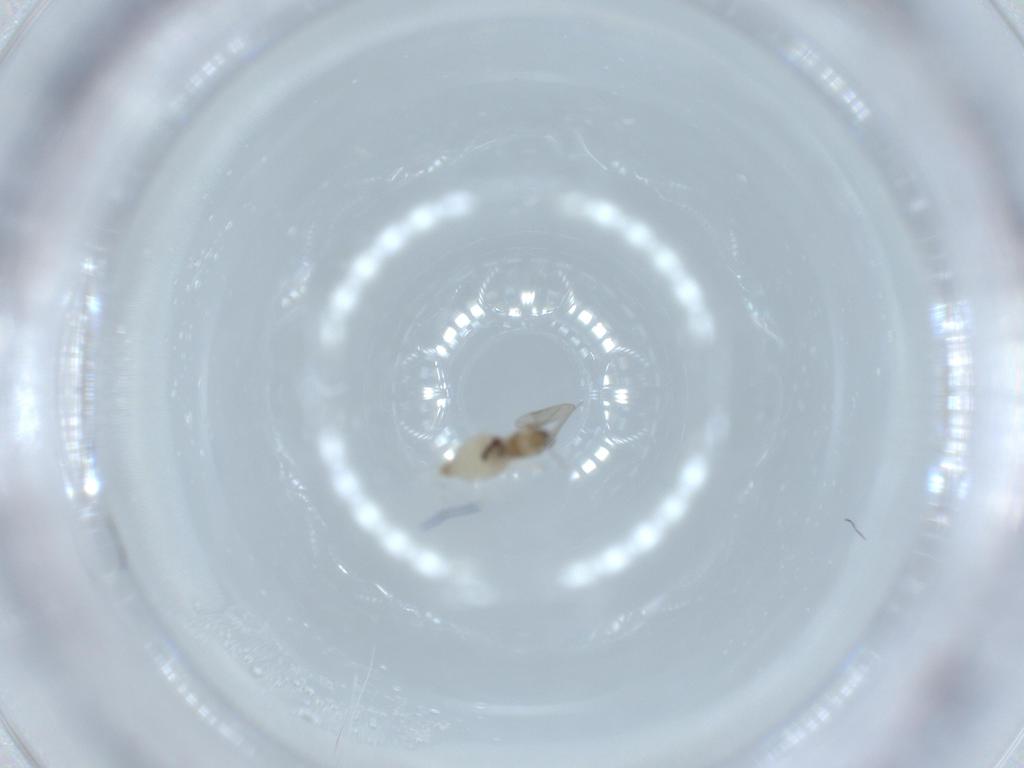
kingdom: Animalia
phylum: Arthropoda
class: Insecta
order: Diptera
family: Cecidomyiidae
